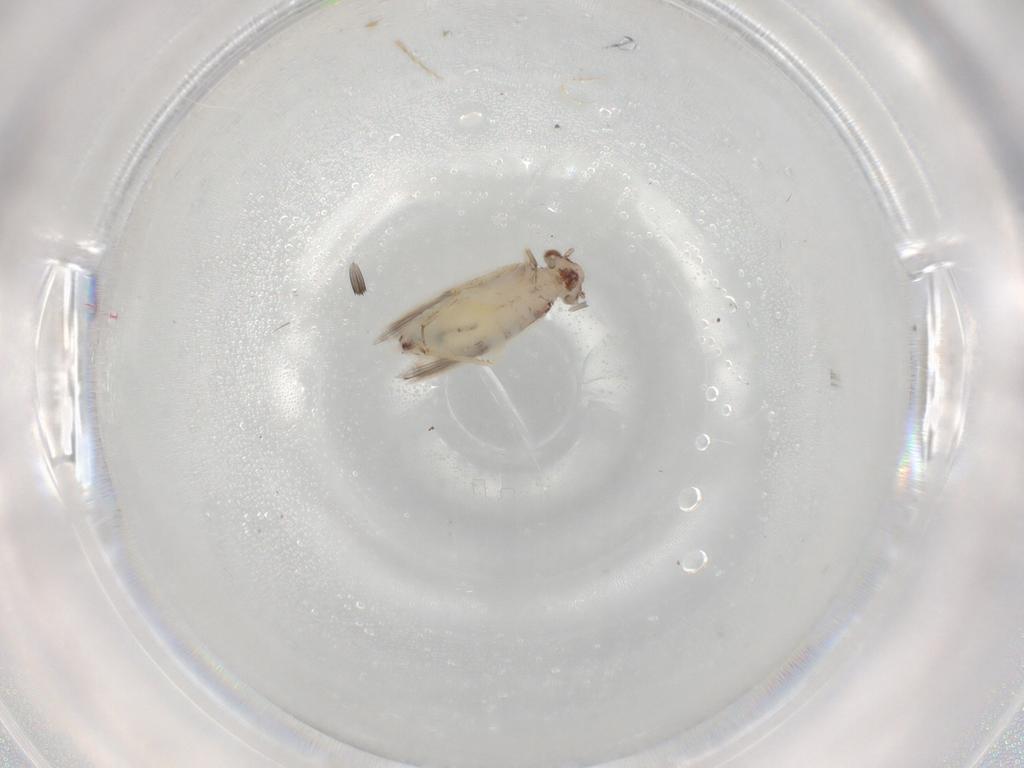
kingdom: Animalia
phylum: Arthropoda
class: Insecta
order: Psocodea
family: Lepidopsocidae
